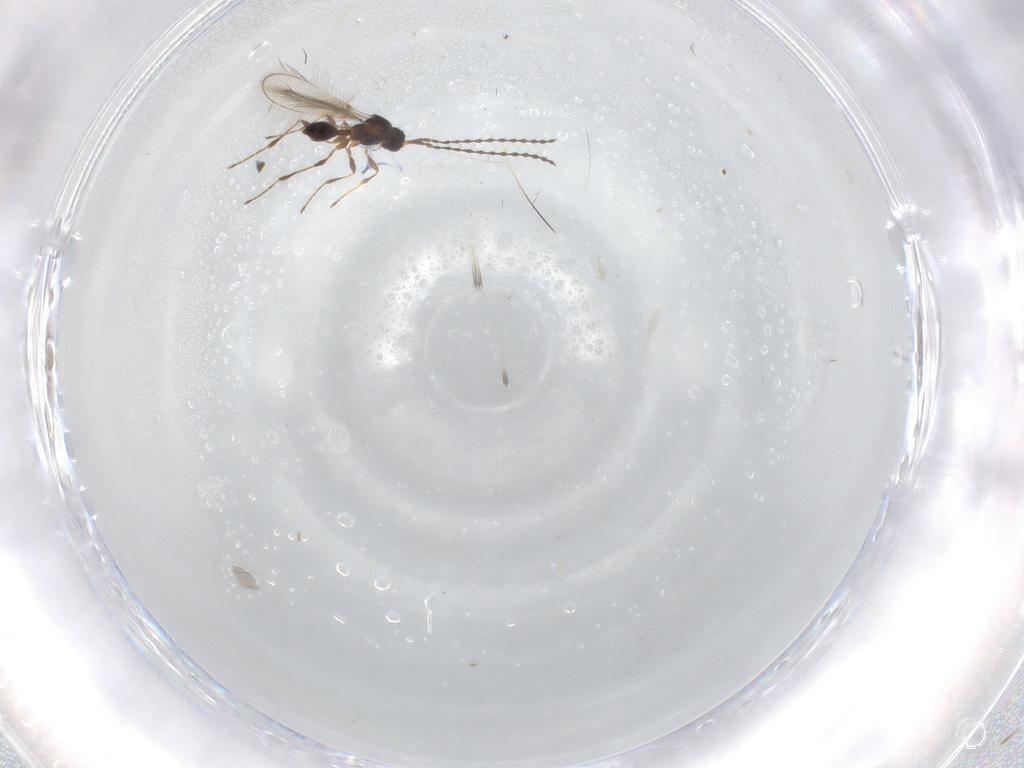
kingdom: Animalia
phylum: Arthropoda
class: Insecta
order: Diptera
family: Mycetophilidae
